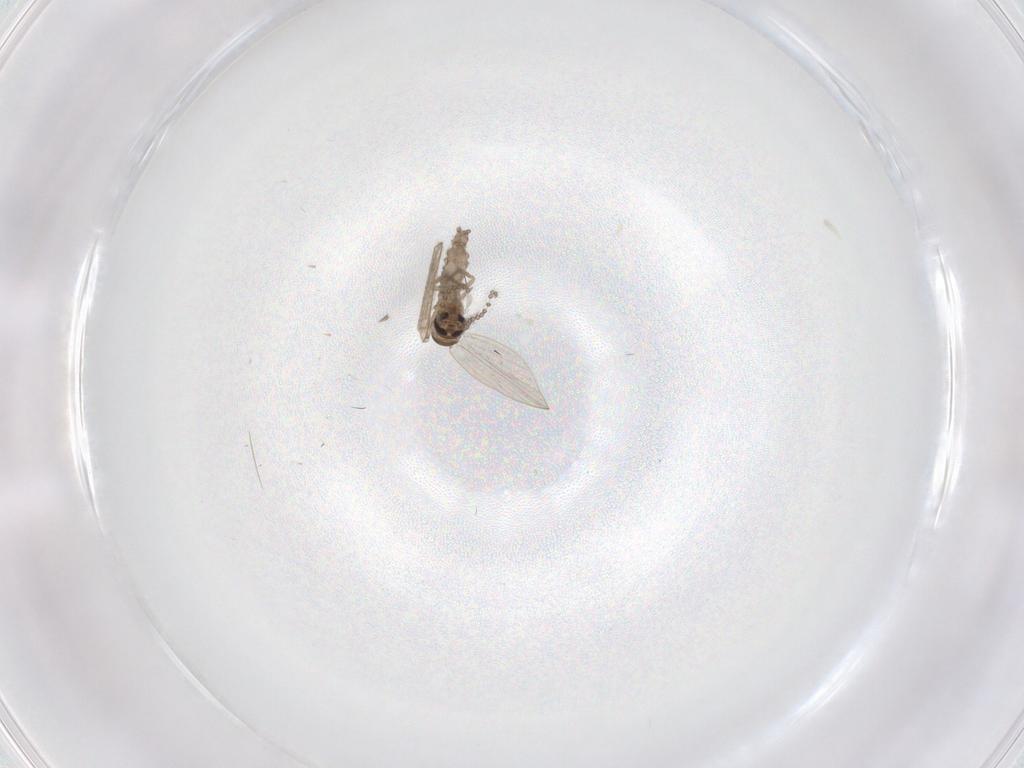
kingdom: Animalia
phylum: Arthropoda
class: Insecta
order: Diptera
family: Psychodidae
